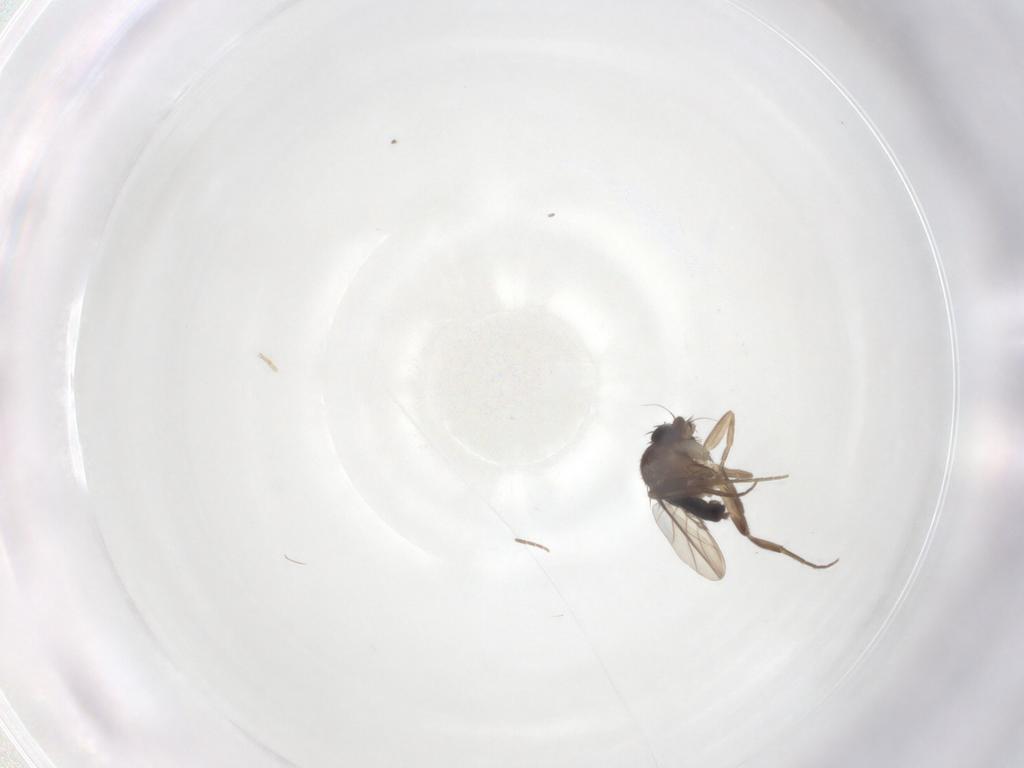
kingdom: Animalia
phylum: Arthropoda
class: Insecta
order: Diptera
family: Phoridae
